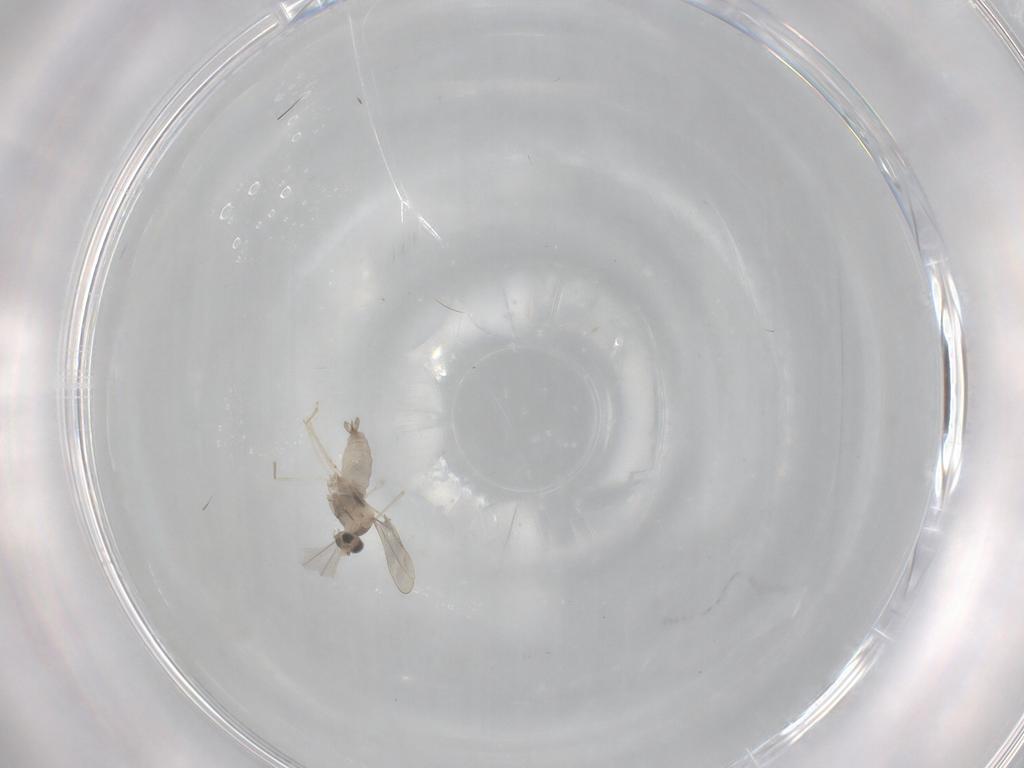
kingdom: Animalia
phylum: Arthropoda
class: Insecta
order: Diptera
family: Cecidomyiidae
